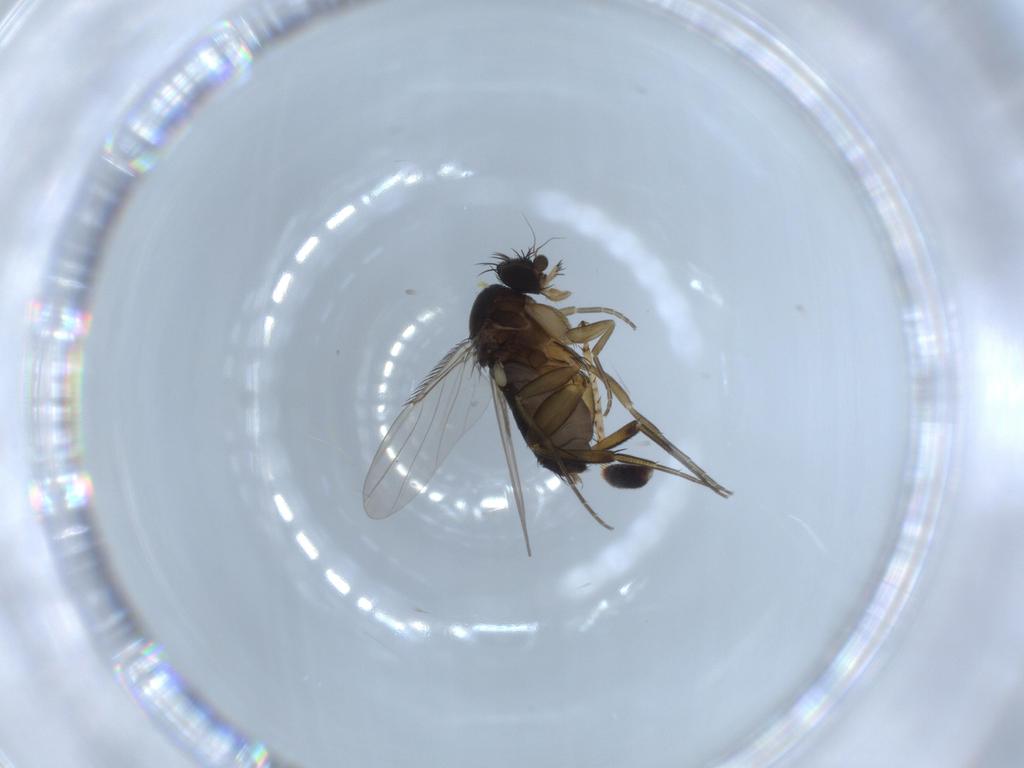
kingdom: Animalia
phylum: Arthropoda
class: Insecta
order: Diptera
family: Phoridae
